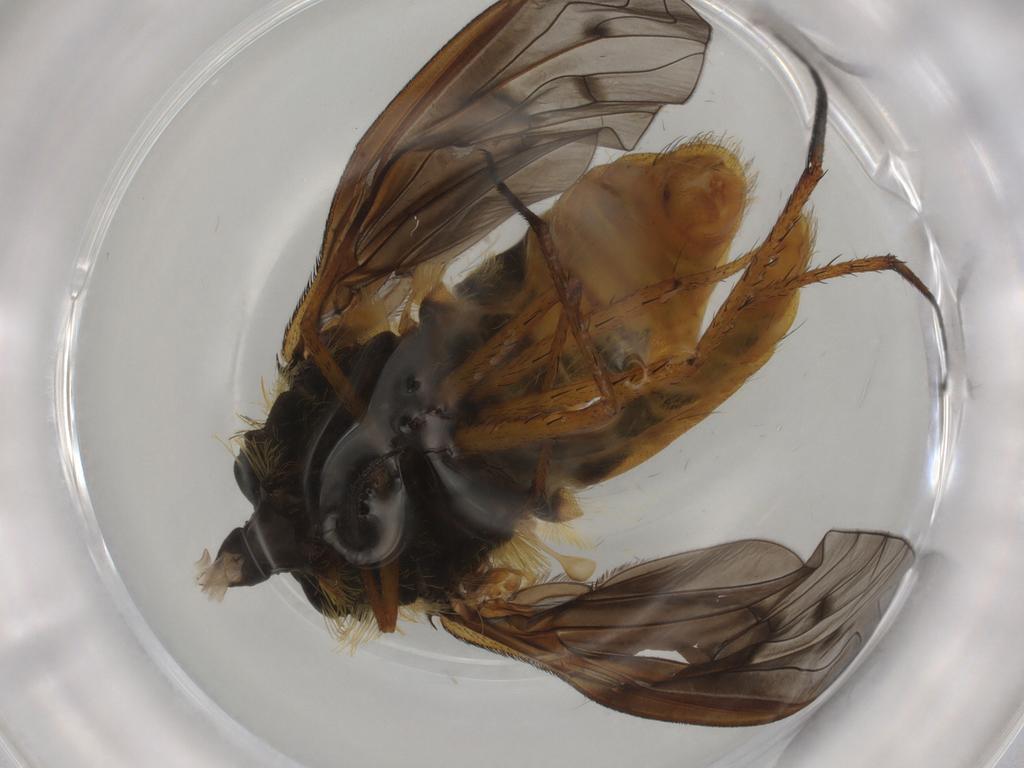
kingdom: Animalia
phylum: Arthropoda
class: Insecta
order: Diptera
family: Bombyliidae
